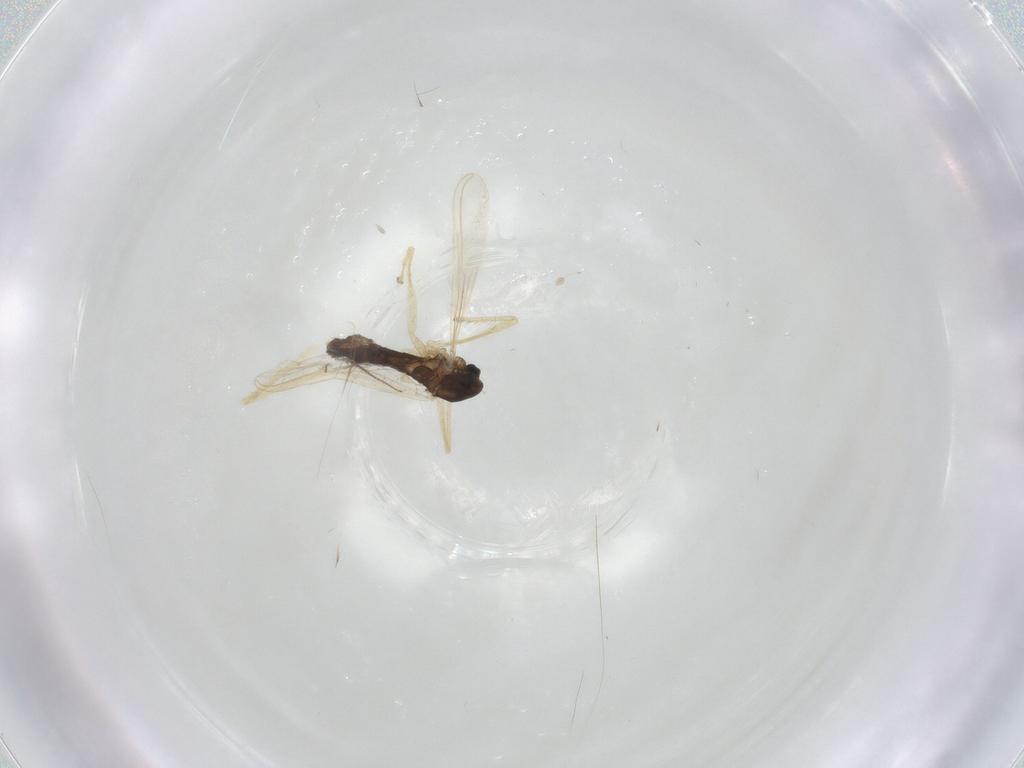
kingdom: Animalia
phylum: Arthropoda
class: Insecta
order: Diptera
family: Chironomidae
